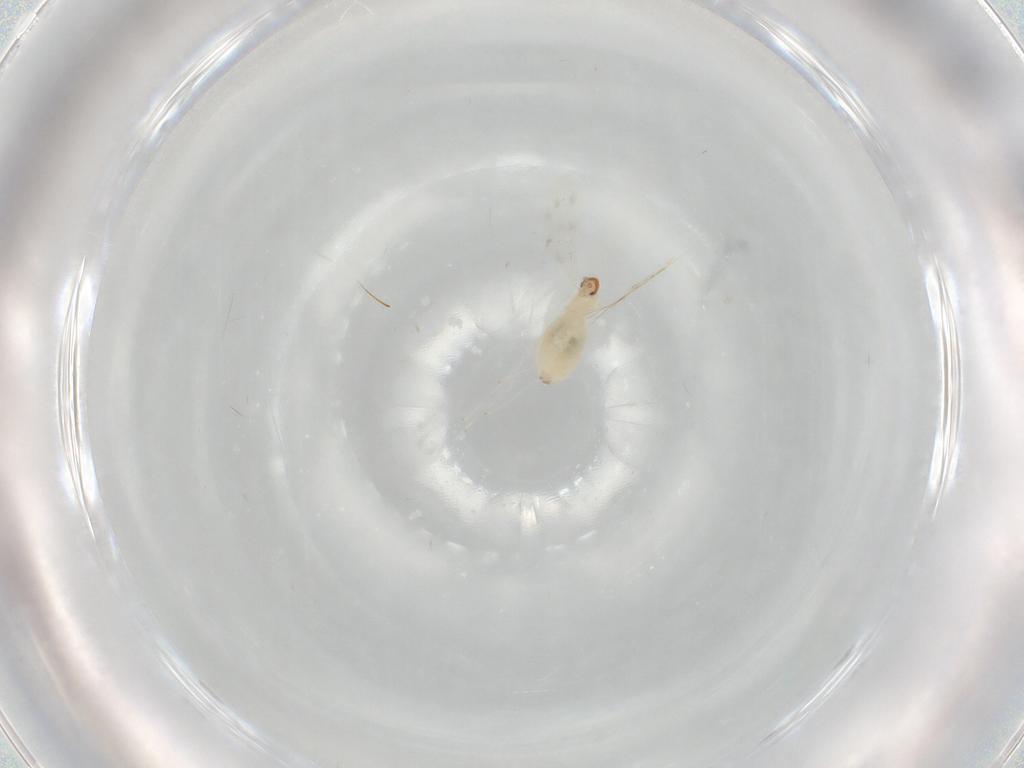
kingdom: Animalia
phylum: Arthropoda
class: Insecta
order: Diptera
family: Cecidomyiidae
